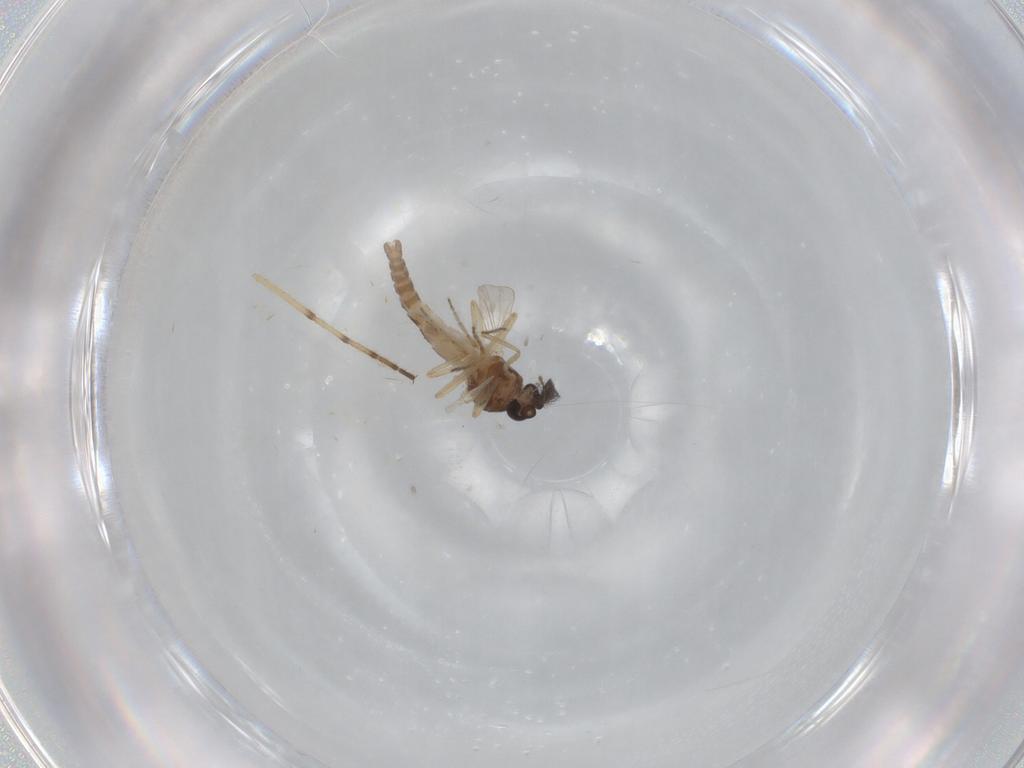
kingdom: Animalia
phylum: Arthropoda
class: Insecta
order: Diptera
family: Ceratopogonidae
